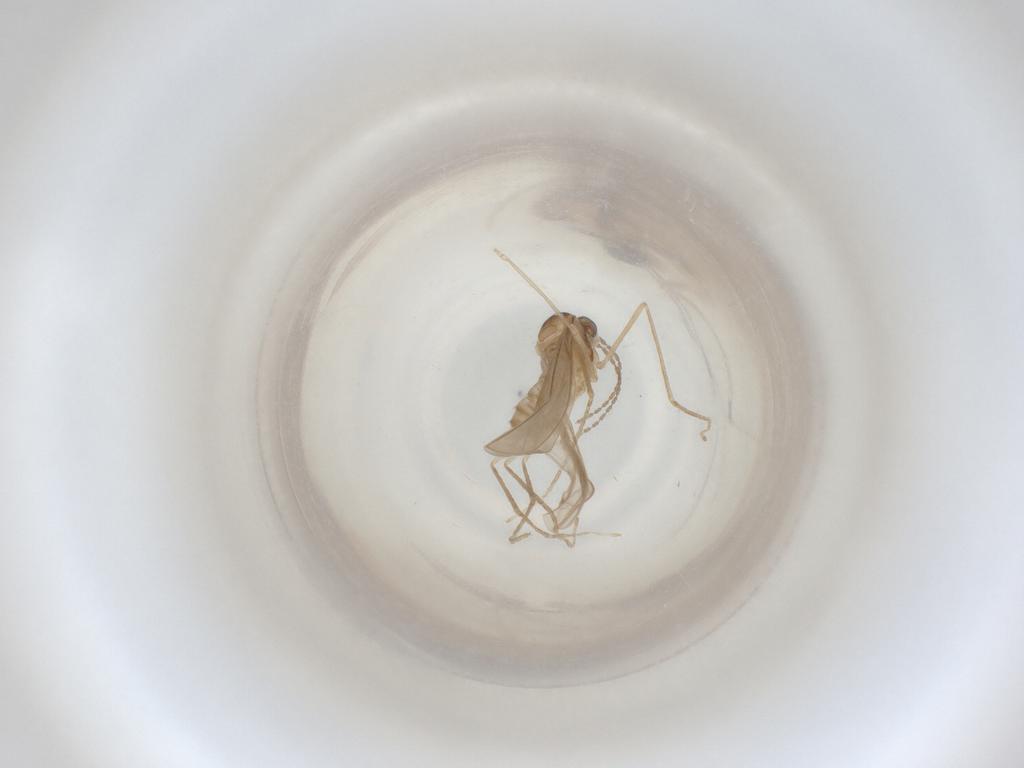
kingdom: Animalia
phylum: Arthropoda
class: Insecta
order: Diptera
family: Cecidomyiidae
